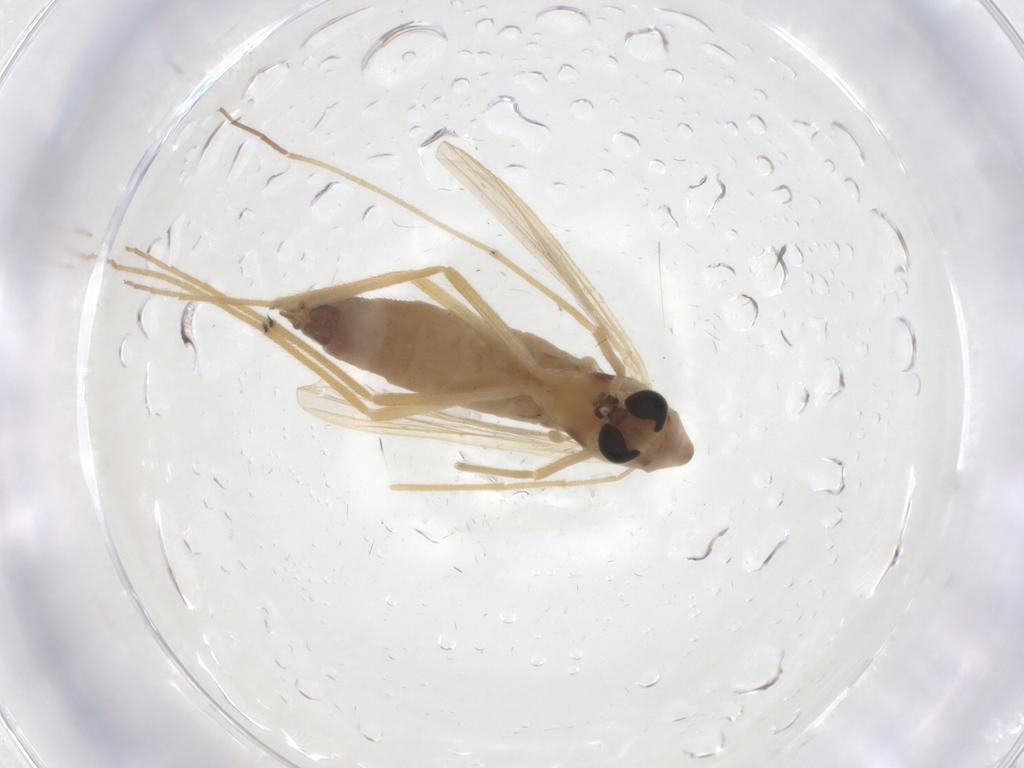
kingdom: Animalia
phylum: Arthropoda
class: Insecta
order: Diptera
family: Chironomidae
